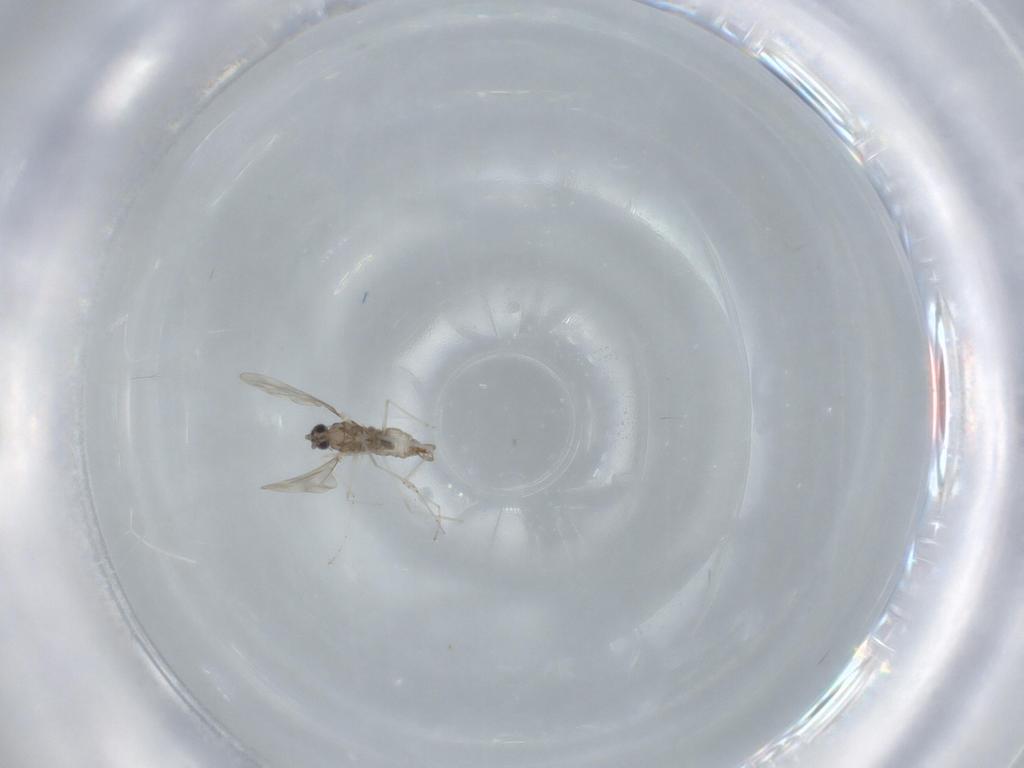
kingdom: Animalia
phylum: Arthropoda
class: Insecta
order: Diptera
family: Cecidomyiidae
